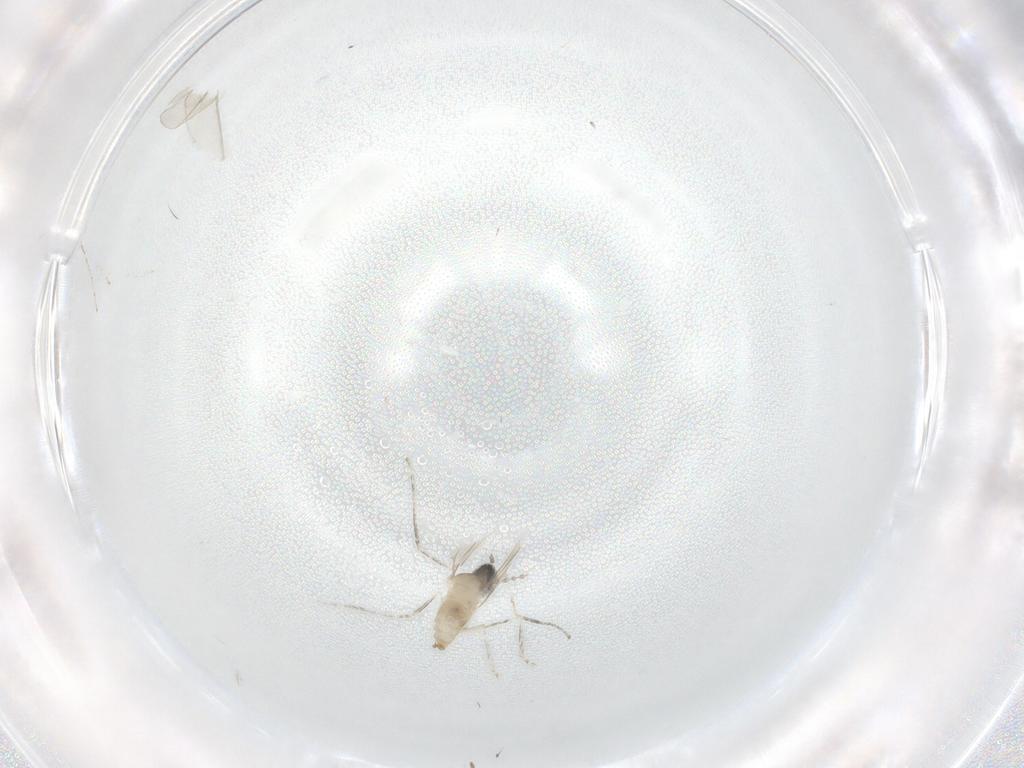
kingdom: Animalia
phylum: Arthropoda
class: Insecta
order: Diptera
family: Cecidomyiidae
